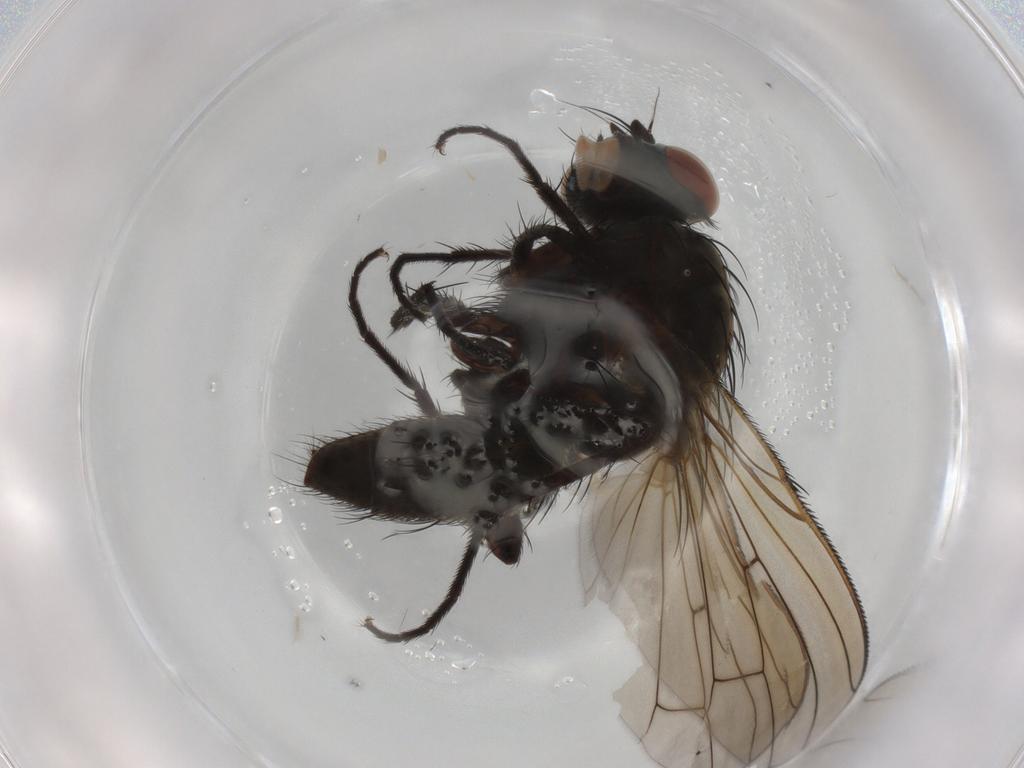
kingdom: Animalia
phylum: Arthropoda
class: Insecta
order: Diptera
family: Anthomyiidae
